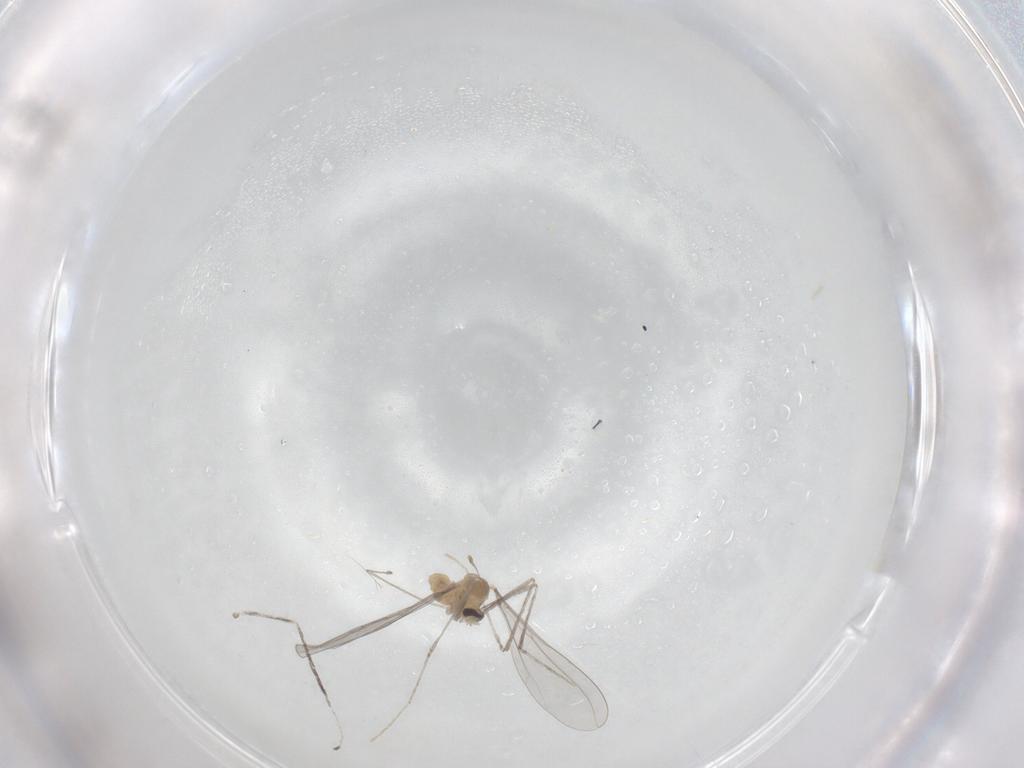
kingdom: Animalia
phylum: Arthropoda
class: Insecta
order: Diptera
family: Cecidomyiidae
